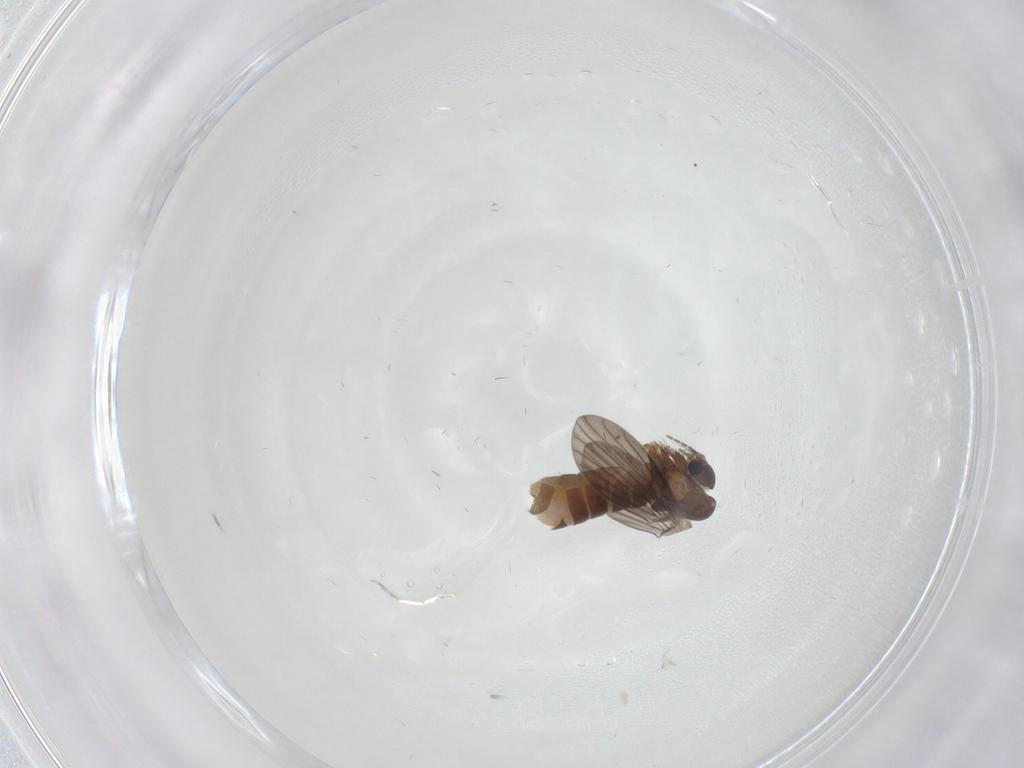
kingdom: Animalia
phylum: Arthropoda
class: Insecta
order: Diptera
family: Psychodidae
